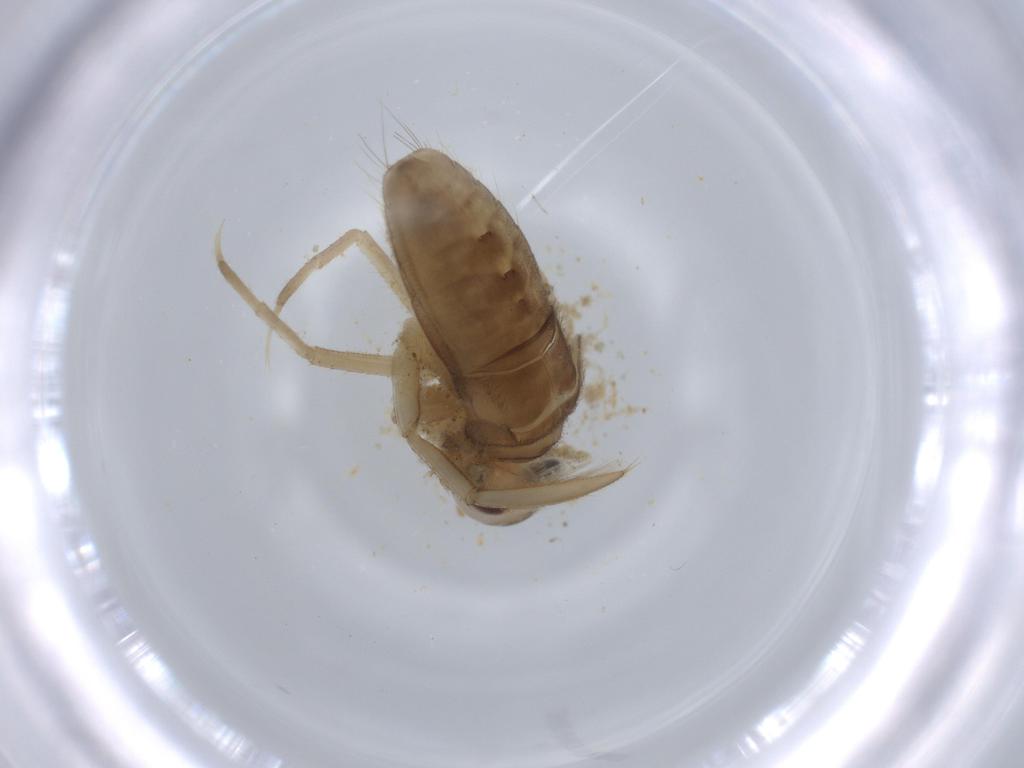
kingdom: Animalia
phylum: Arthropoda
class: Insecta
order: Hemiptera
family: Corixidae
